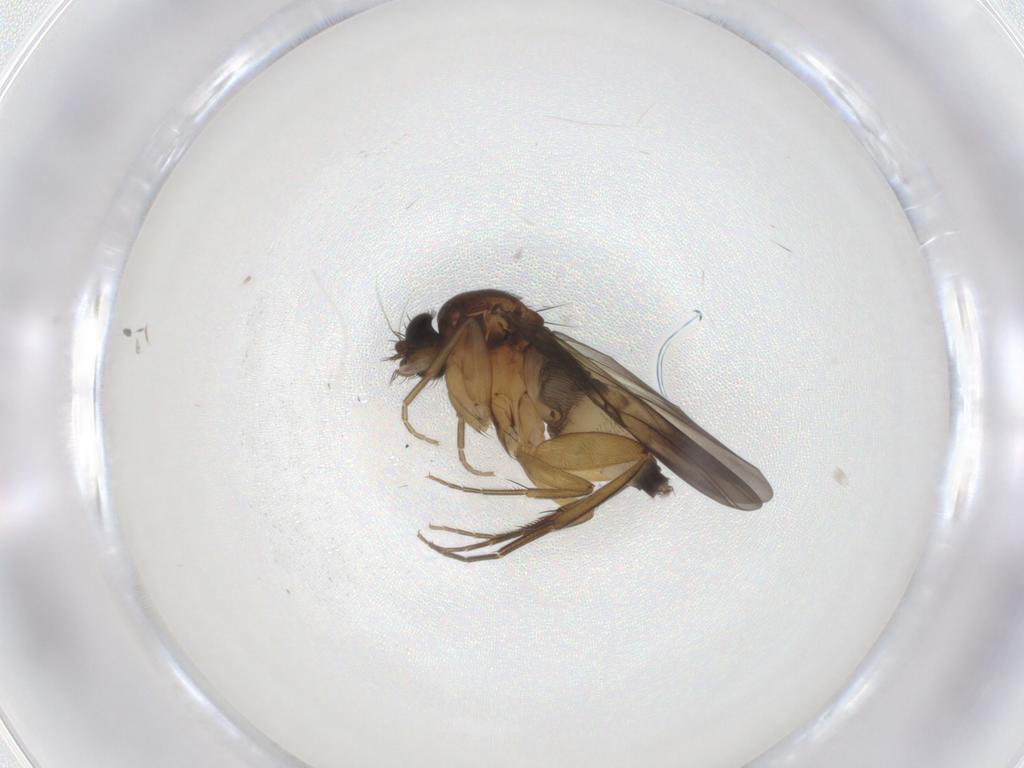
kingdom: Animalia
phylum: Arthropoda
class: Insecta
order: Diptera
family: Phoridae
